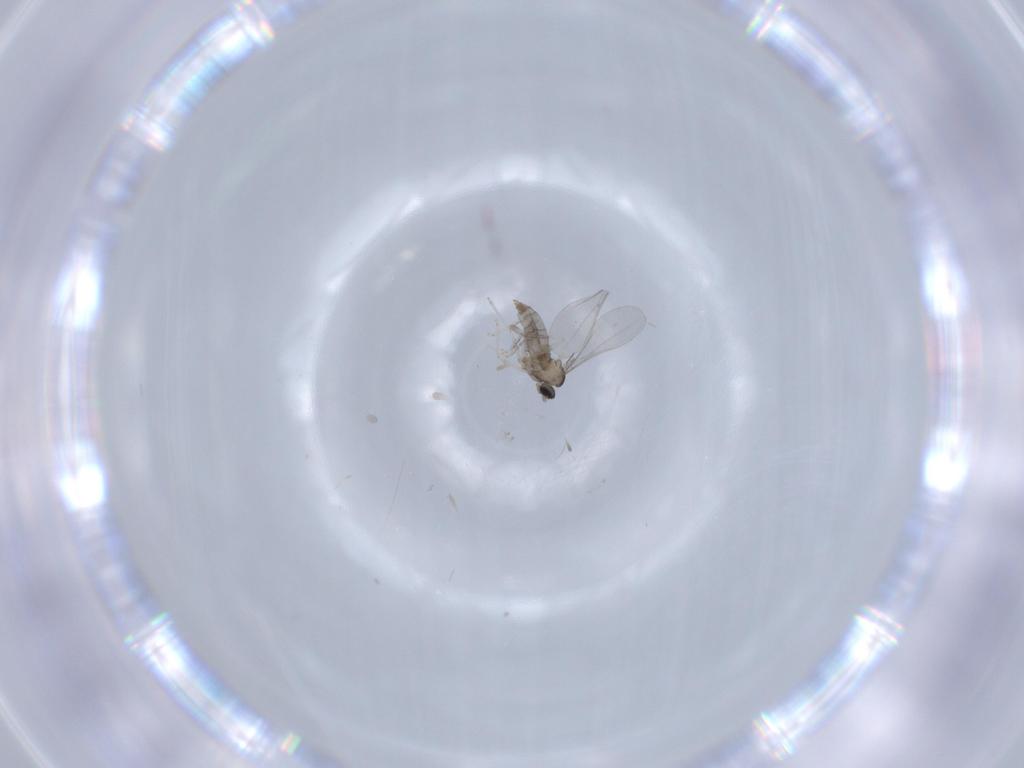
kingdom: Animalia
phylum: Arthropoda
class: Insecta
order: Diptera
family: Limoniidae
